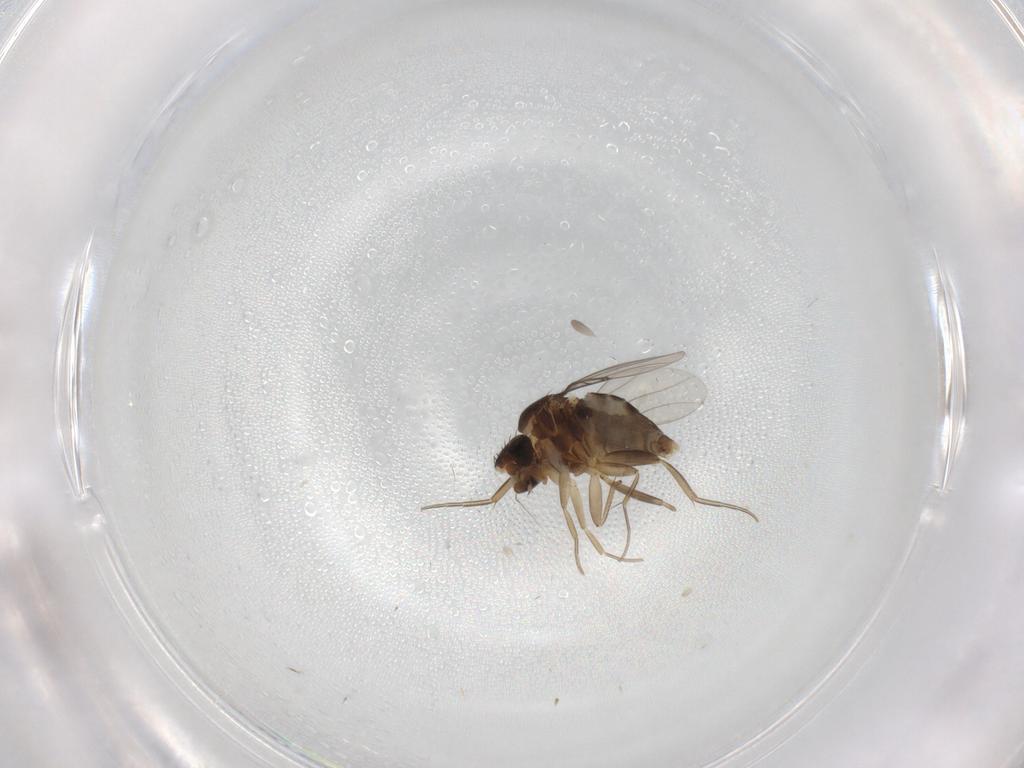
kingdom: Animalia
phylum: Arthropoda
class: Insecta
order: Diptera
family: Phoridae
